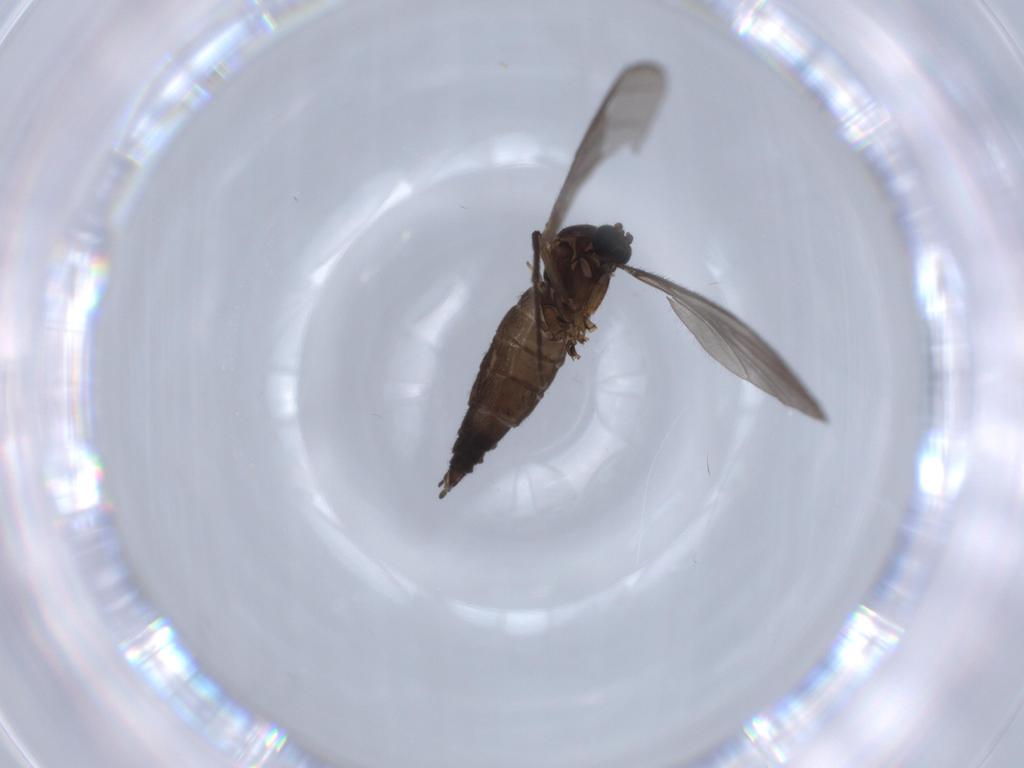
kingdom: Animalia
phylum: Arthropoda
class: Insecta
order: Diptera
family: Sciaridae
